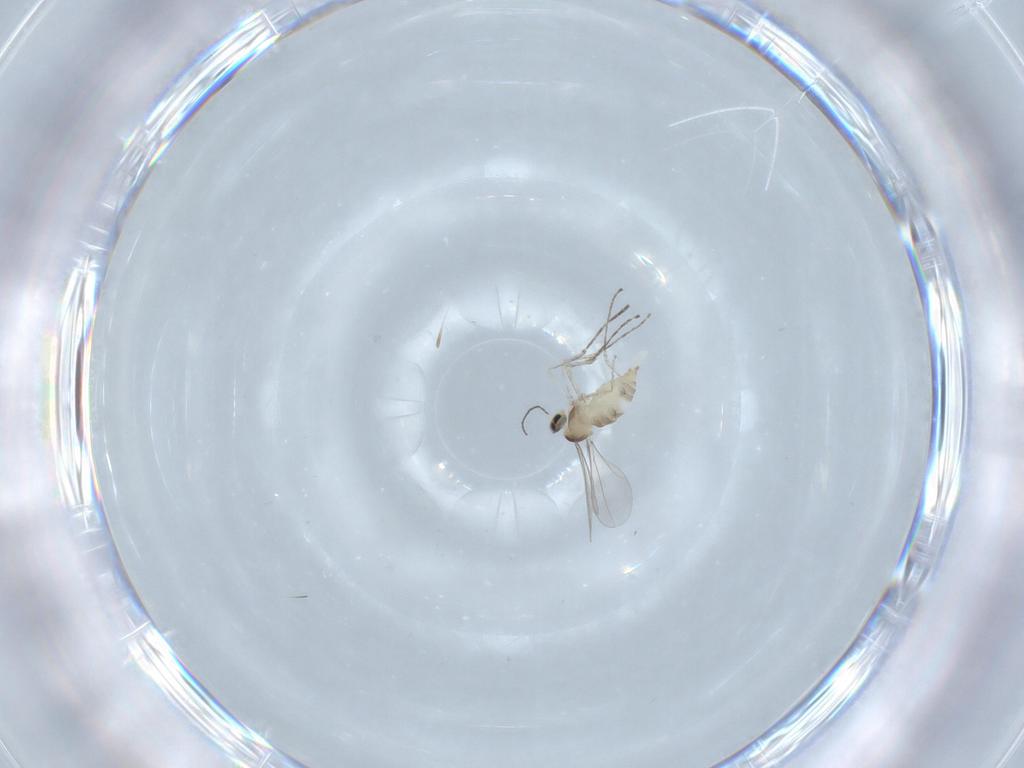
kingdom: Animalia
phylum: Arthropoda
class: Insecta
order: Diptera
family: Cecidomyiidae
